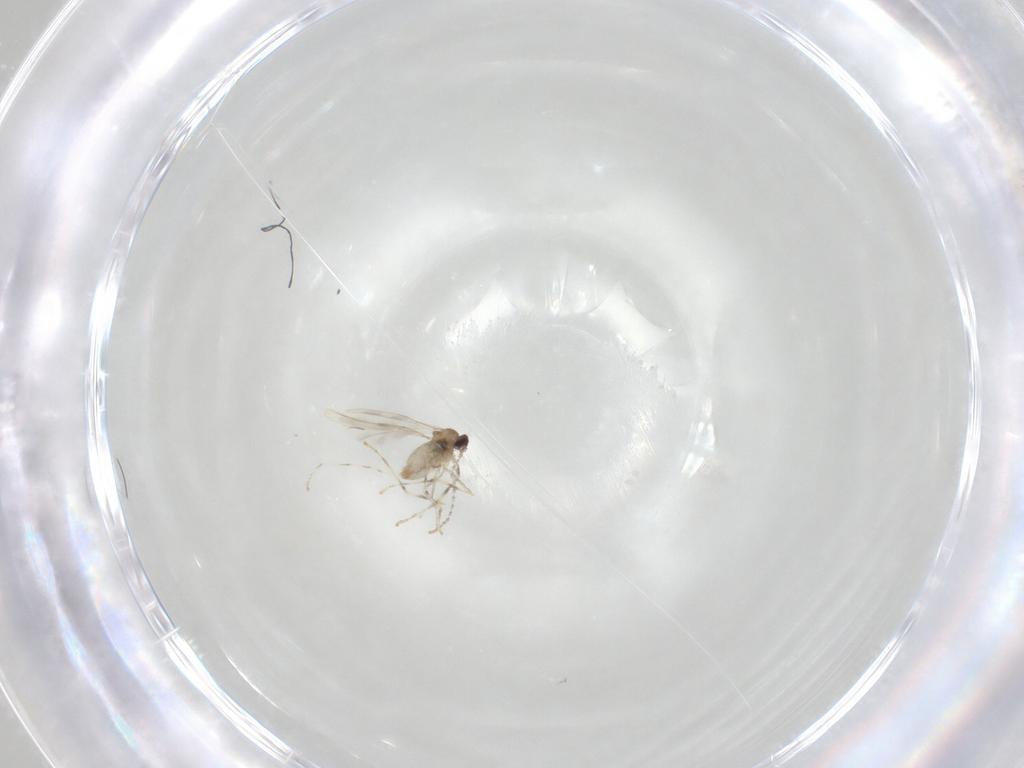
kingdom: Animalia
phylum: Arthropoda
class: Insecta
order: Diptera
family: Cecidomyiidae
